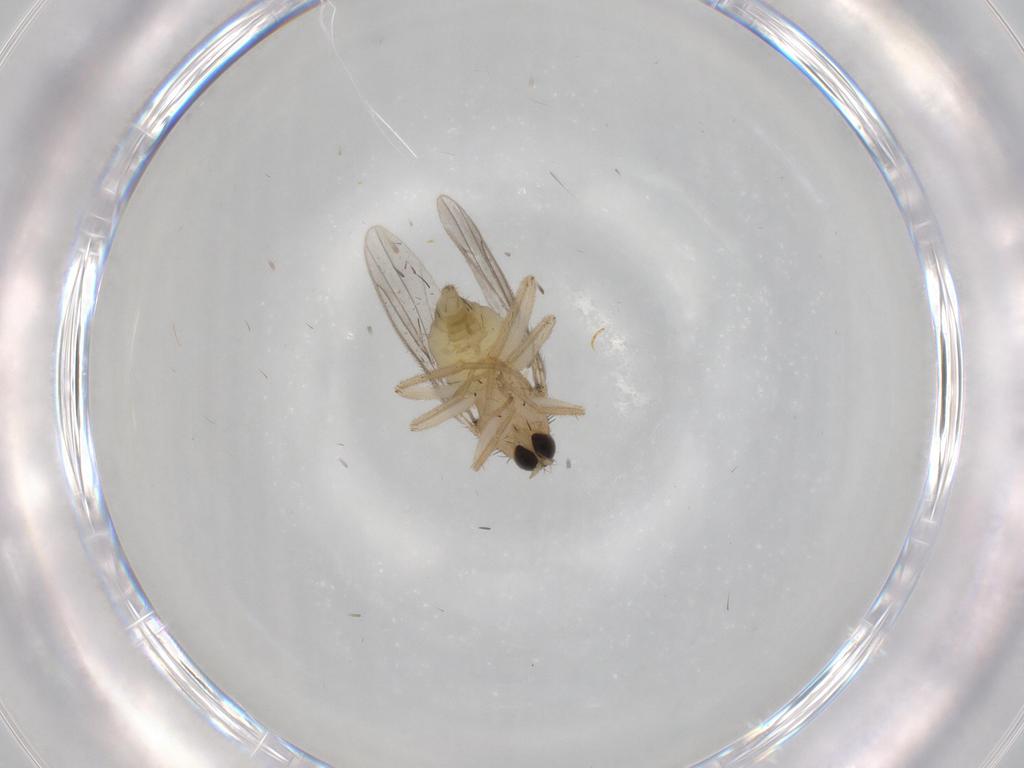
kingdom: Animalia
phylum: Arthropoda
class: Insecta
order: Diptera
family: Hybotidae
